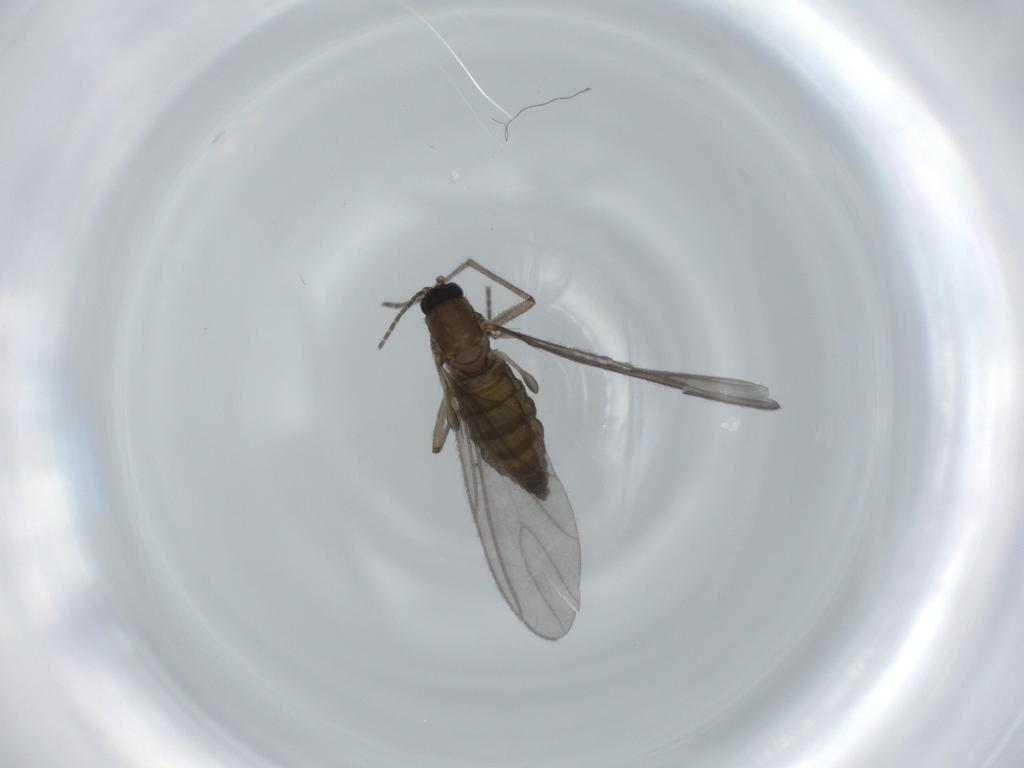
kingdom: Animalia
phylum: Arthropoda
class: Insecta
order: Diptera
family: Sciaridae
